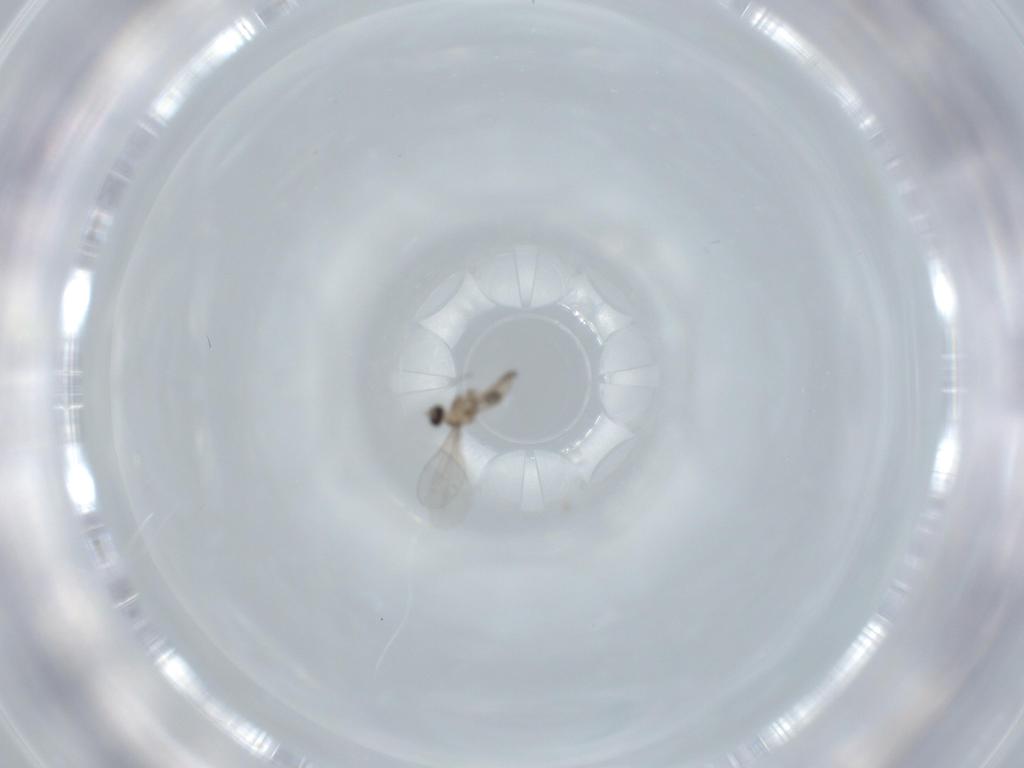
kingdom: Animalia
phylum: Arthropoda
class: Insecta
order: Diptera
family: Cecidomyiidae
